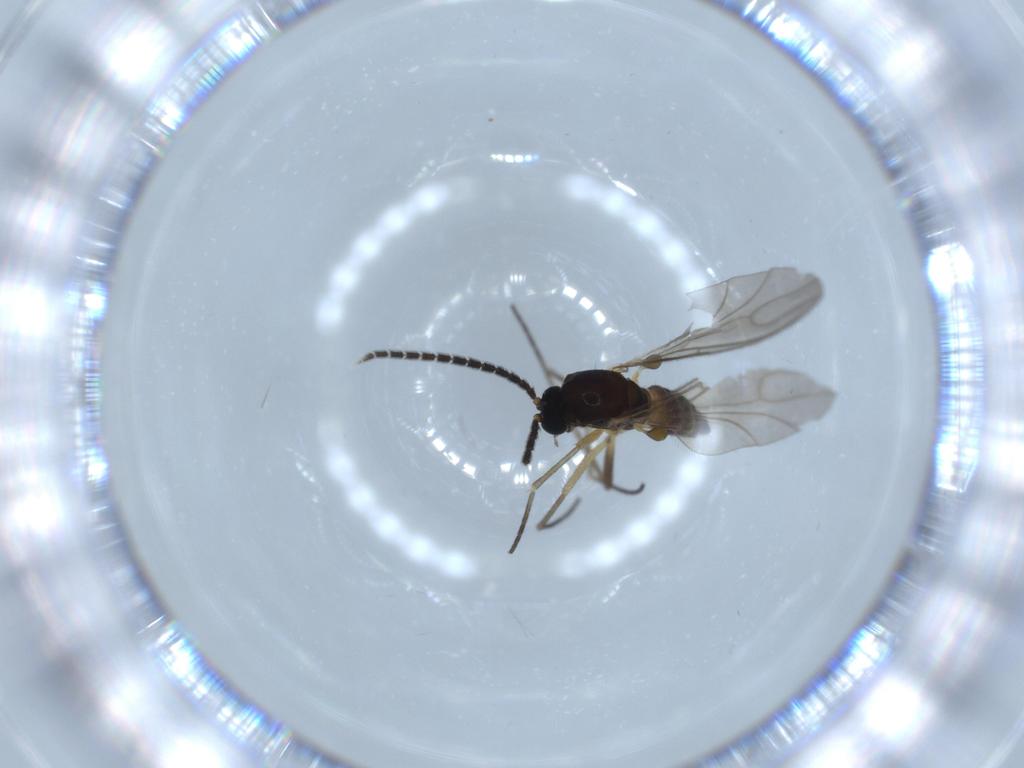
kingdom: Animalia
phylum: Arthropoda
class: Insecta
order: Diptera
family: Sciaridae
